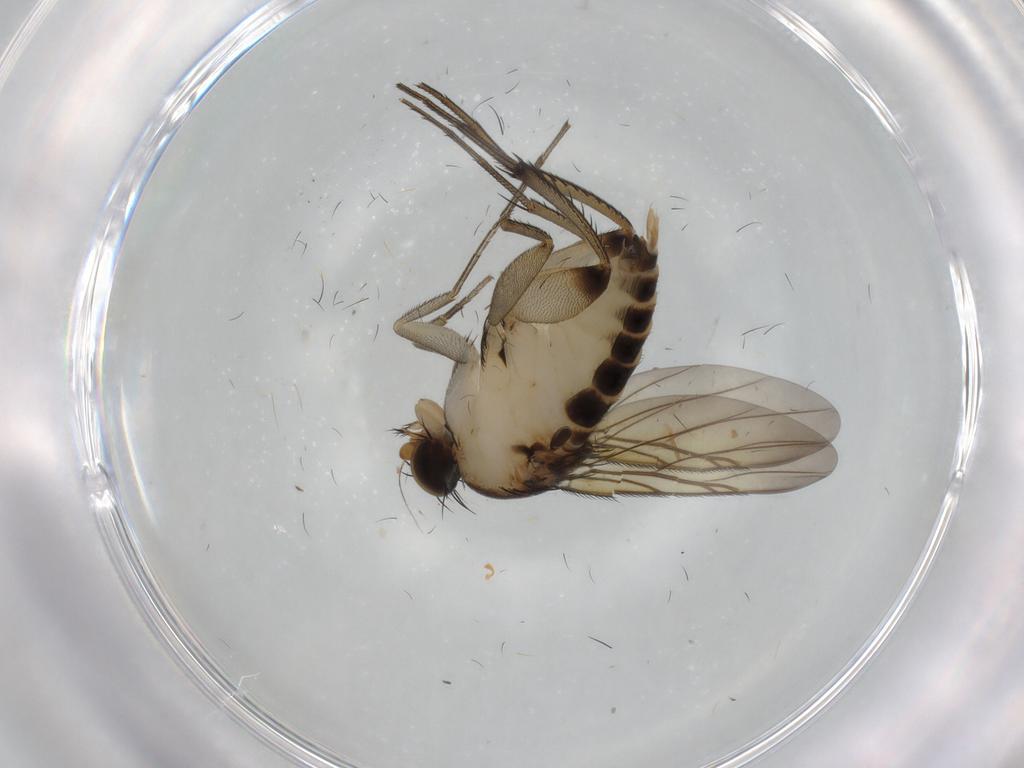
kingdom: Animalia
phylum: Arthropoda
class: Insecta
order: Diptera
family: Phoridae
